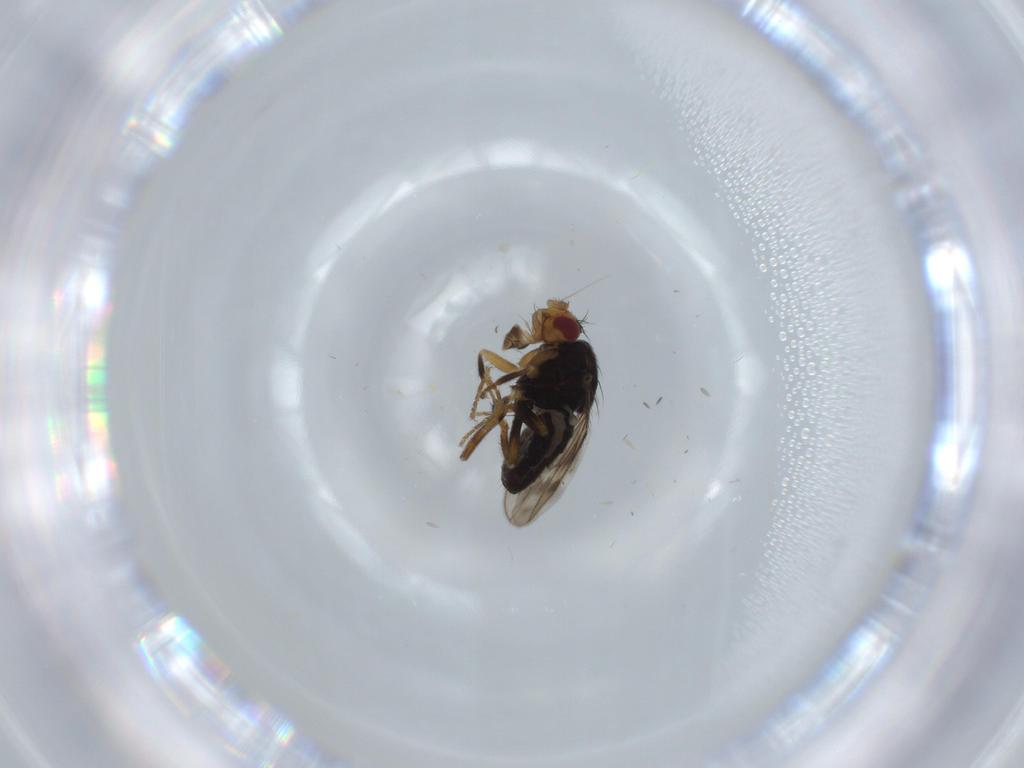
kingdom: Animalia
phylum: Arthropoda
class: Insecta
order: Diptera
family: Sphaeroceridae
